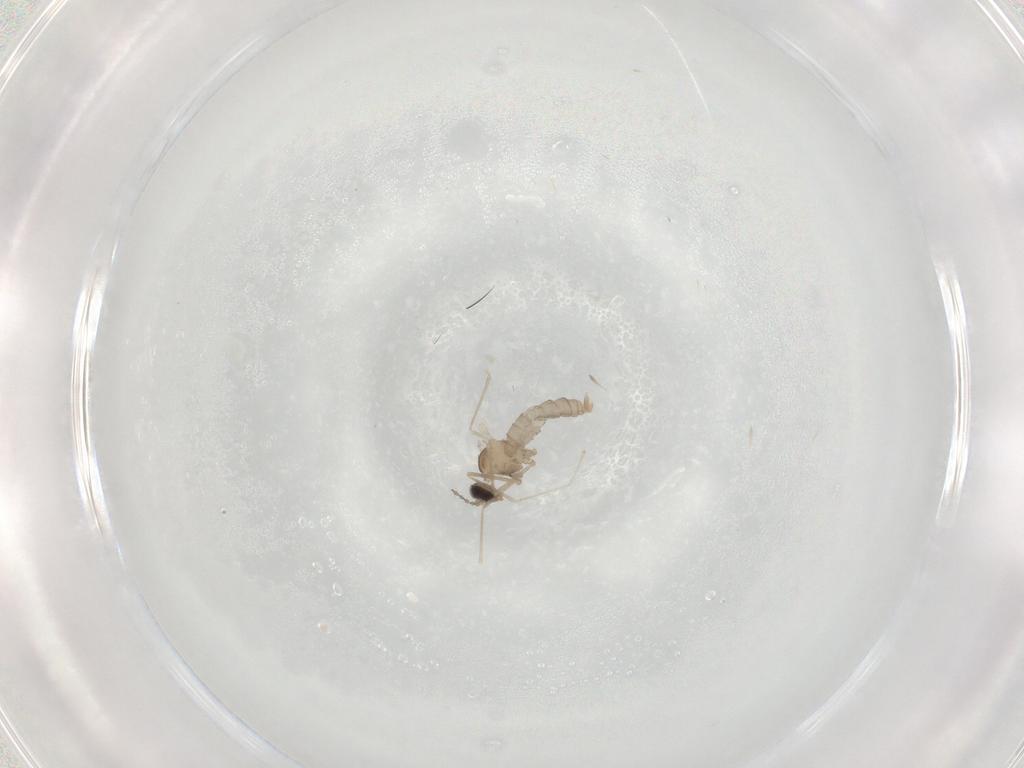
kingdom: Animalia
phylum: Arthropoda
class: Insecta
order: Diptera
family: Cecidomyiidae
